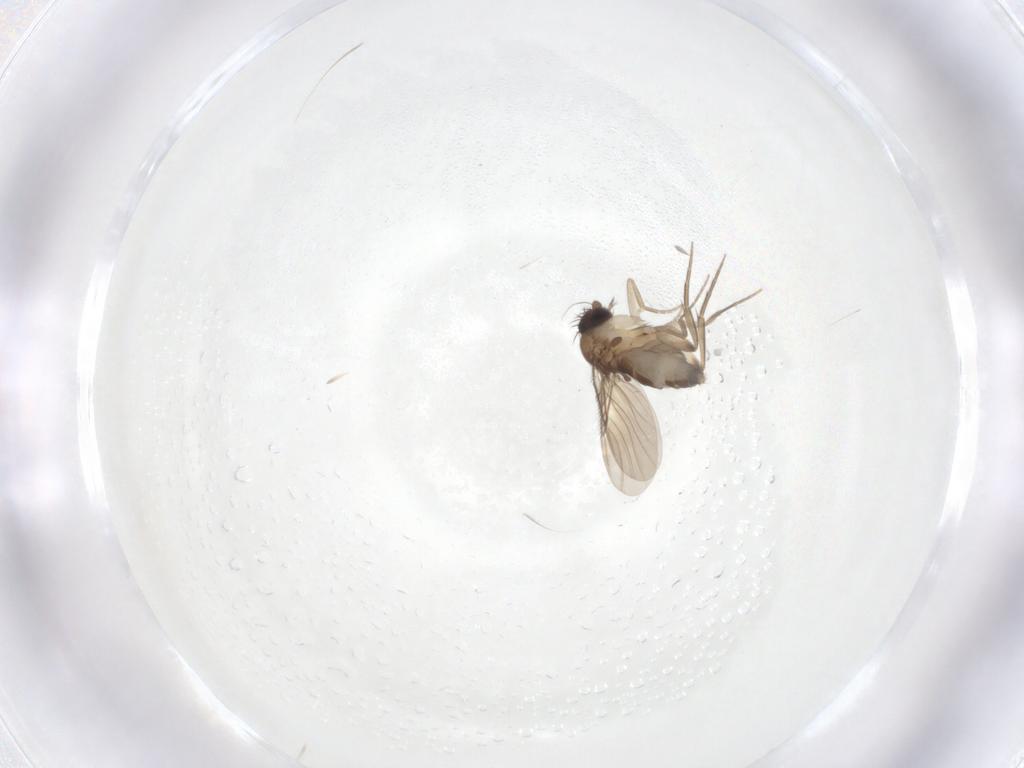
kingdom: Animalia
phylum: Arthropoda
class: Insecta
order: Diptera
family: Phoridae
